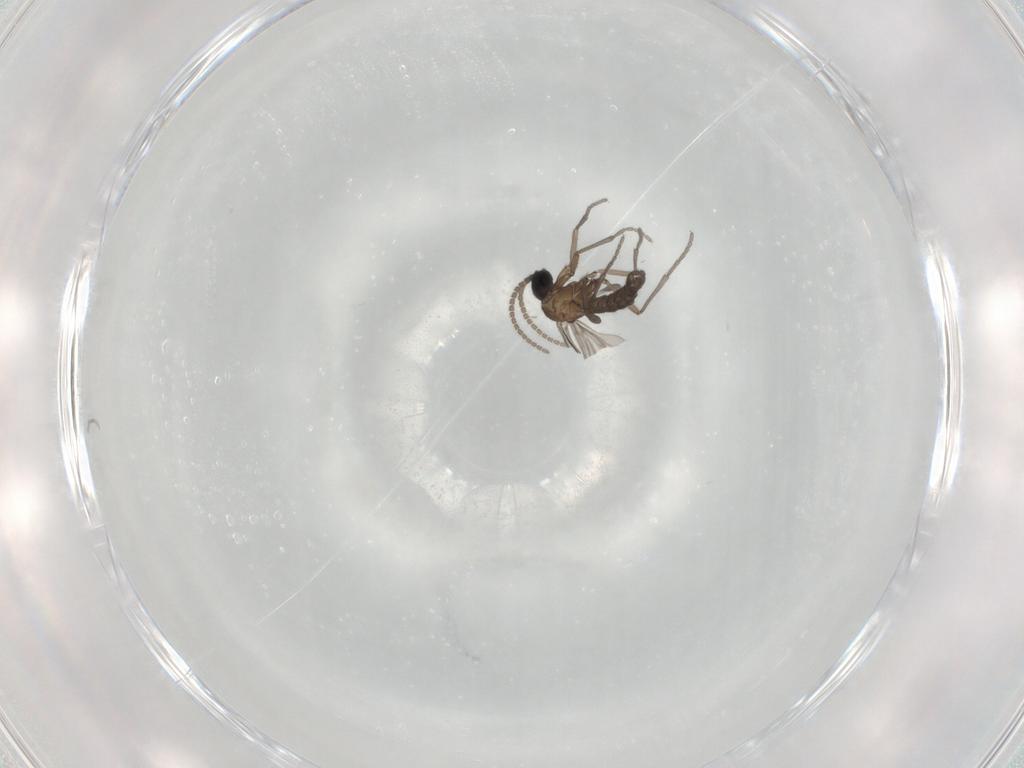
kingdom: Animalia
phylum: Arthropoda
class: Insecta
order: Diptera
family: Sciaridae
